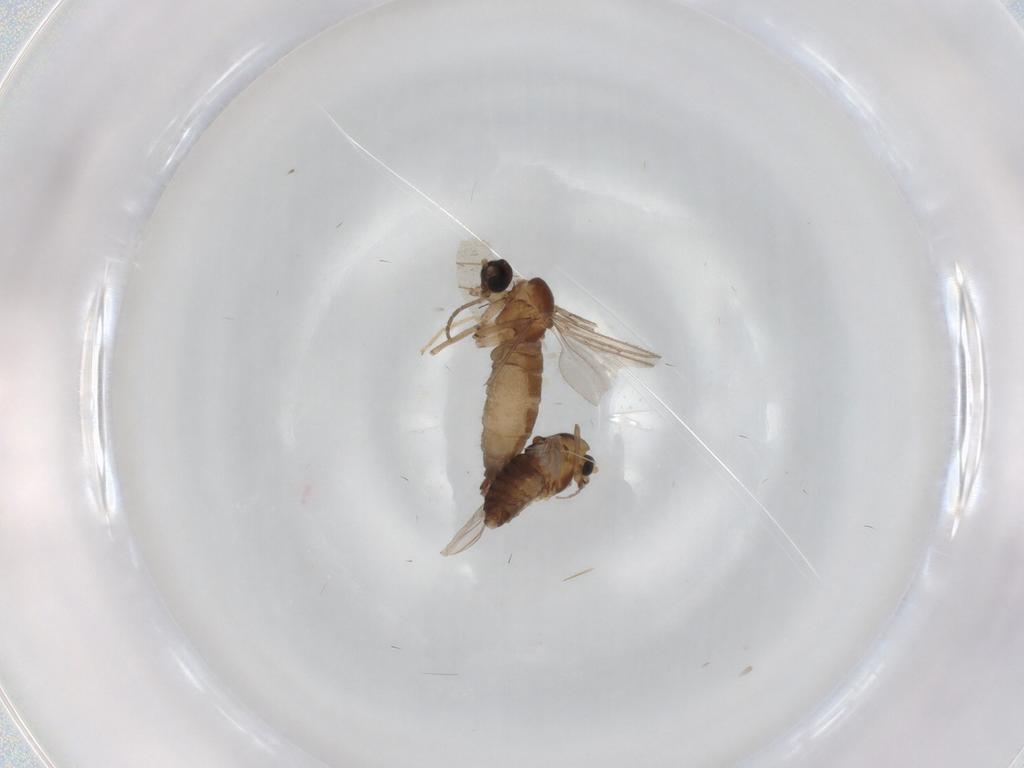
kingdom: Animalia
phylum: Arthropoda
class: Insecta
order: Diptera
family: Chironomidae
